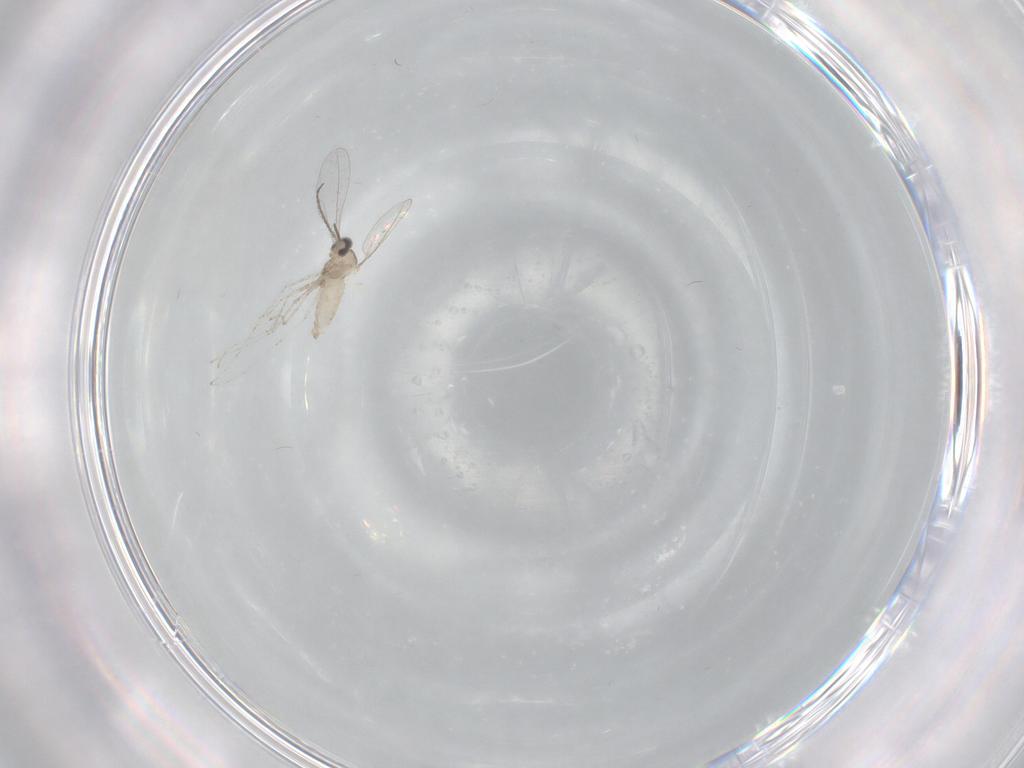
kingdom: Animalia
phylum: Arthropoda
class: Insecta
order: Diptera
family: Cecidomyiidae
